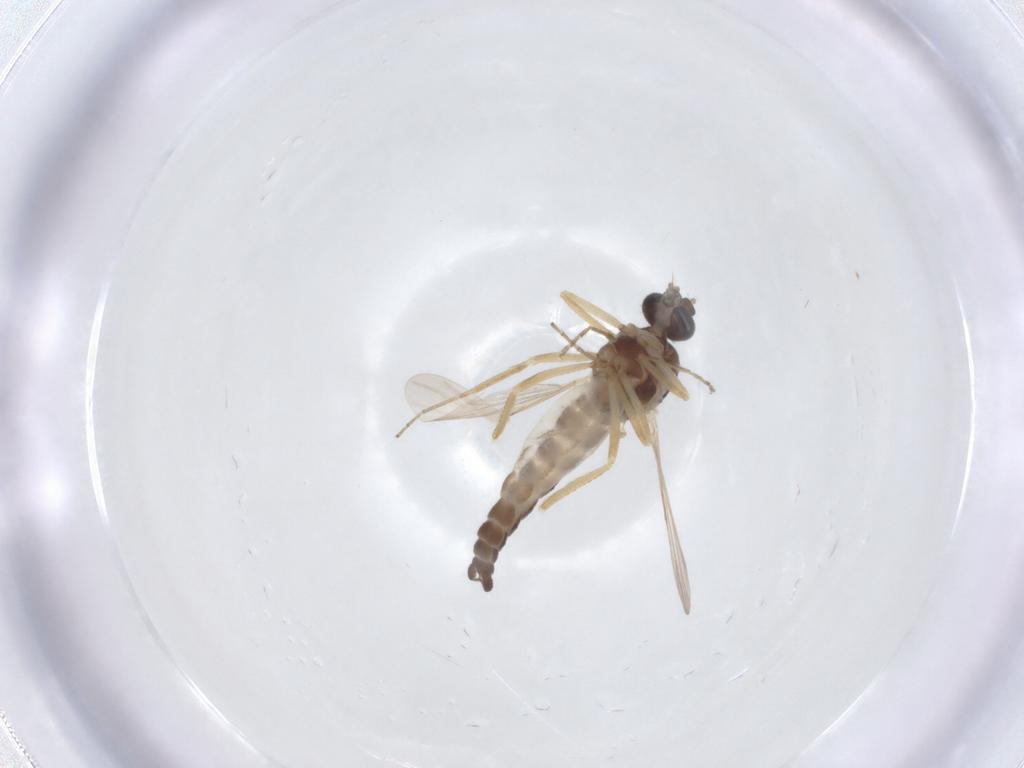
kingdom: Animalia
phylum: Arthropoda
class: Insecta
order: Diptera
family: Ceratopogonidae
